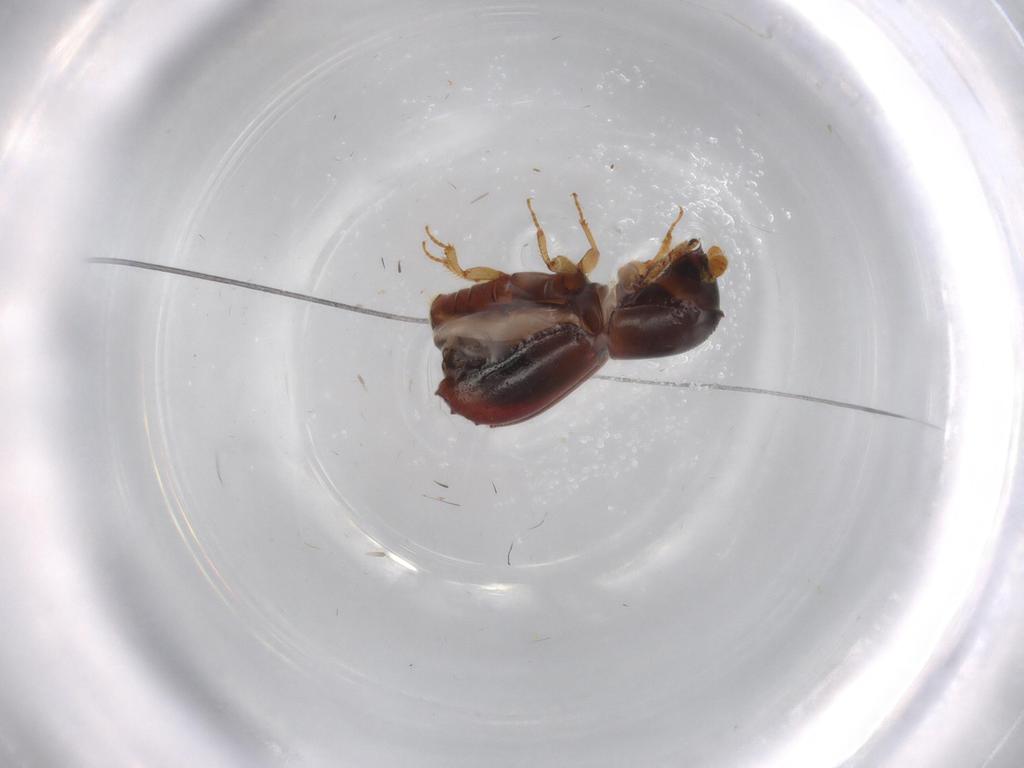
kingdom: Animalia
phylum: Arthropoda
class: Insecta
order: Coleoptera
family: Curculionidae
